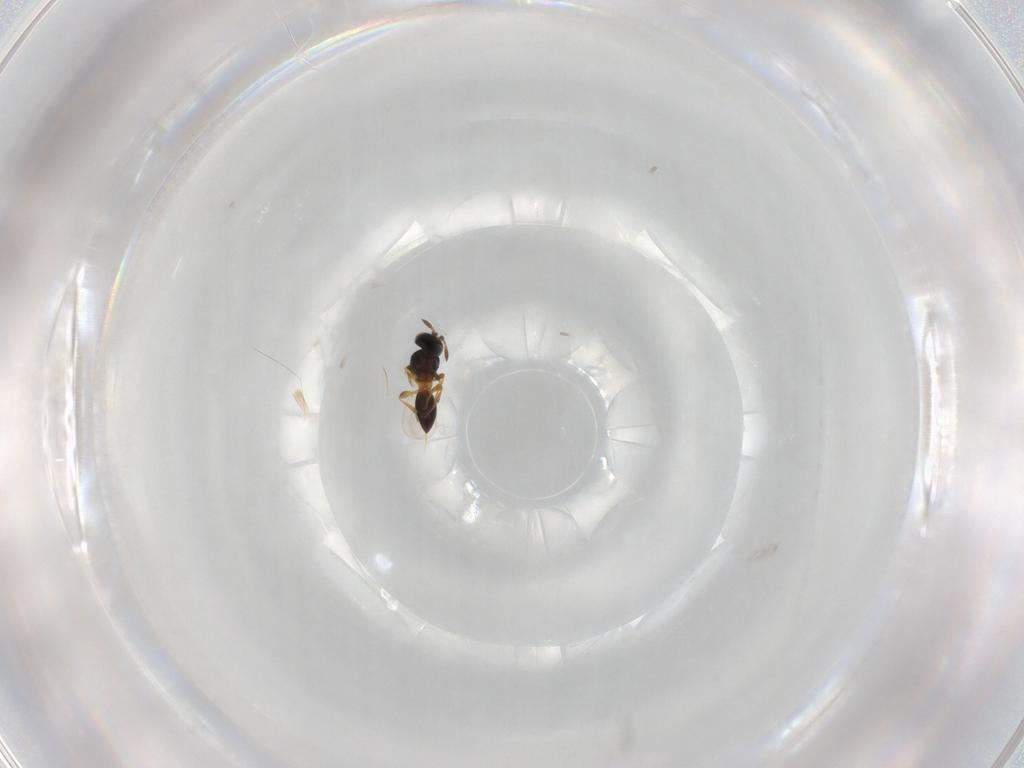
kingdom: Animalia
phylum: Arthropoda
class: Insecta
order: Hymenoptera
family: Platygastridae
